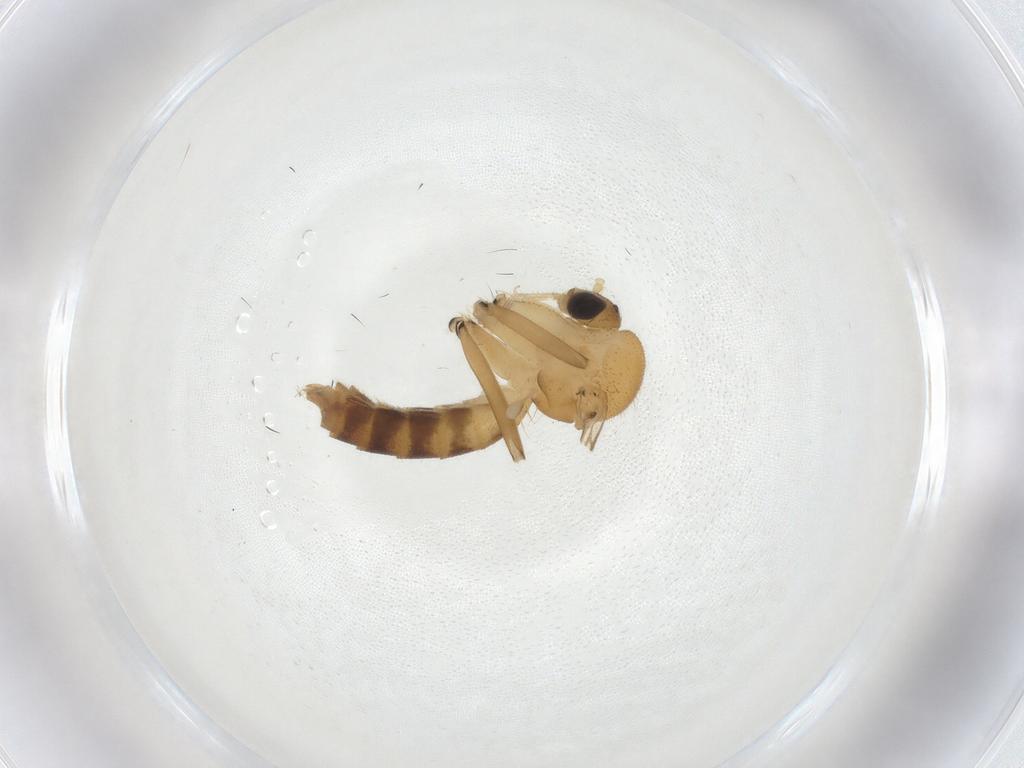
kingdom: Animalia
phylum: Arthropoda
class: Insecta
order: Diptera
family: Mycetophilidae
